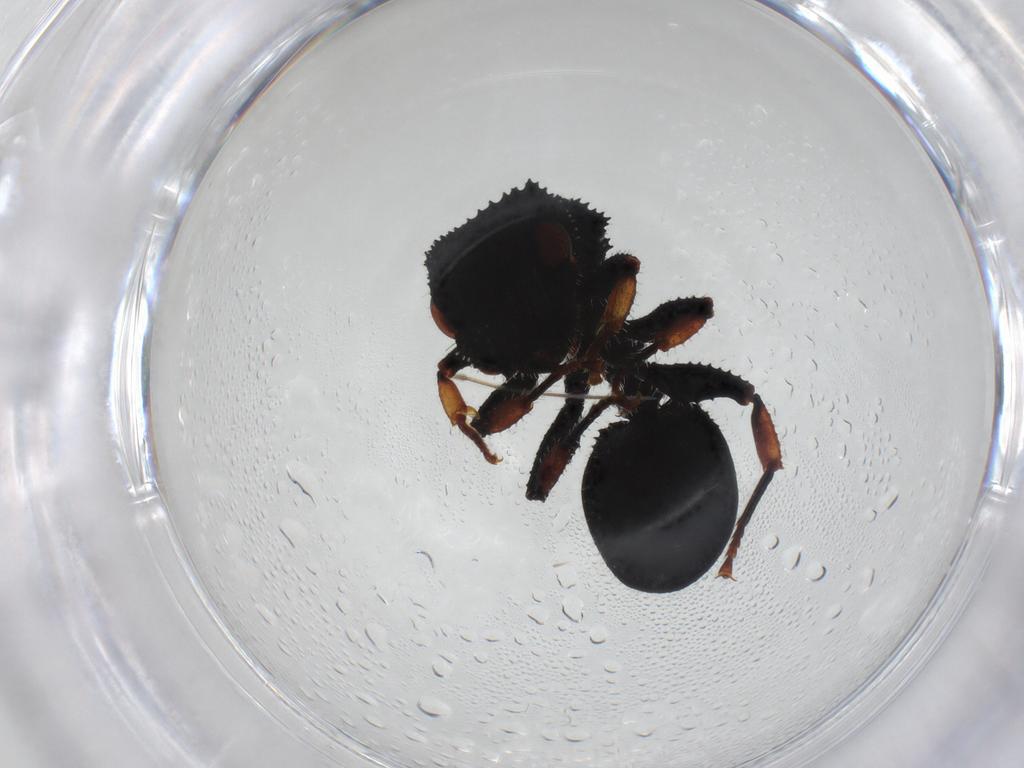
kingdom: Animalia
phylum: Arthropoda
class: Insecta
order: Hymenoptera
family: Formicidae
